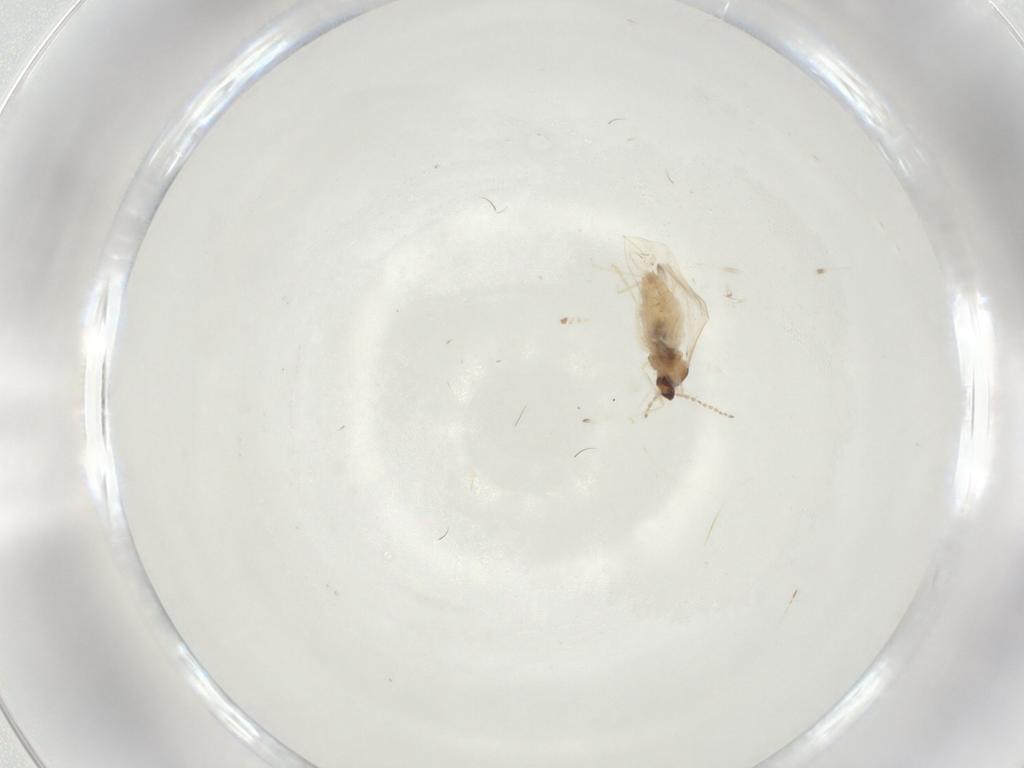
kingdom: Animalia
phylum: Arthropoda
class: Insecta
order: Diptera
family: Cecidomyiidae
